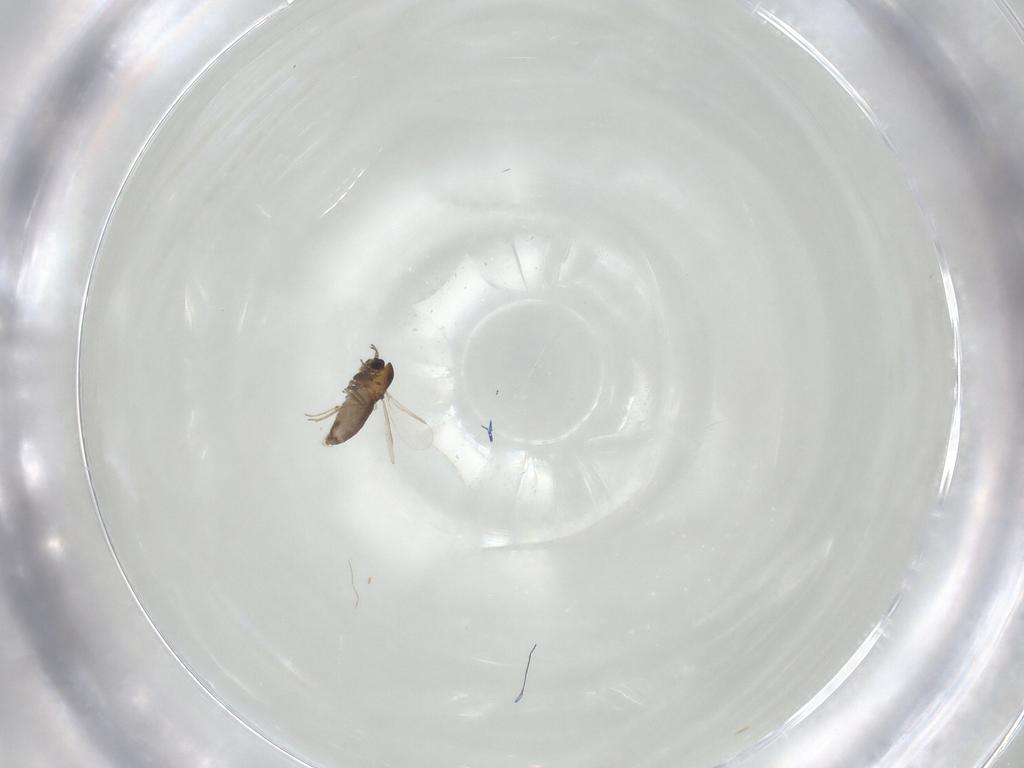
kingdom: Animalia
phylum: Arthropoda
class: Insecta
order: Diptera
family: Chironomidae
